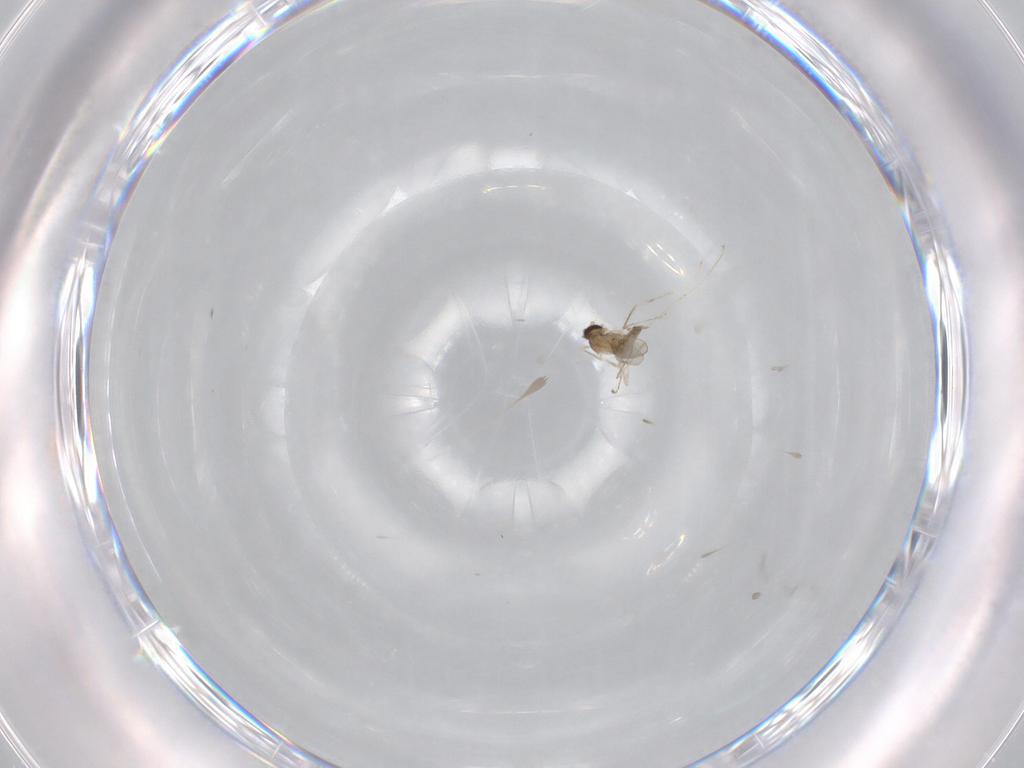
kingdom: Animalia
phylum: Arthropoda
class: Insecta
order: Diptera
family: Cecidomyiidae
